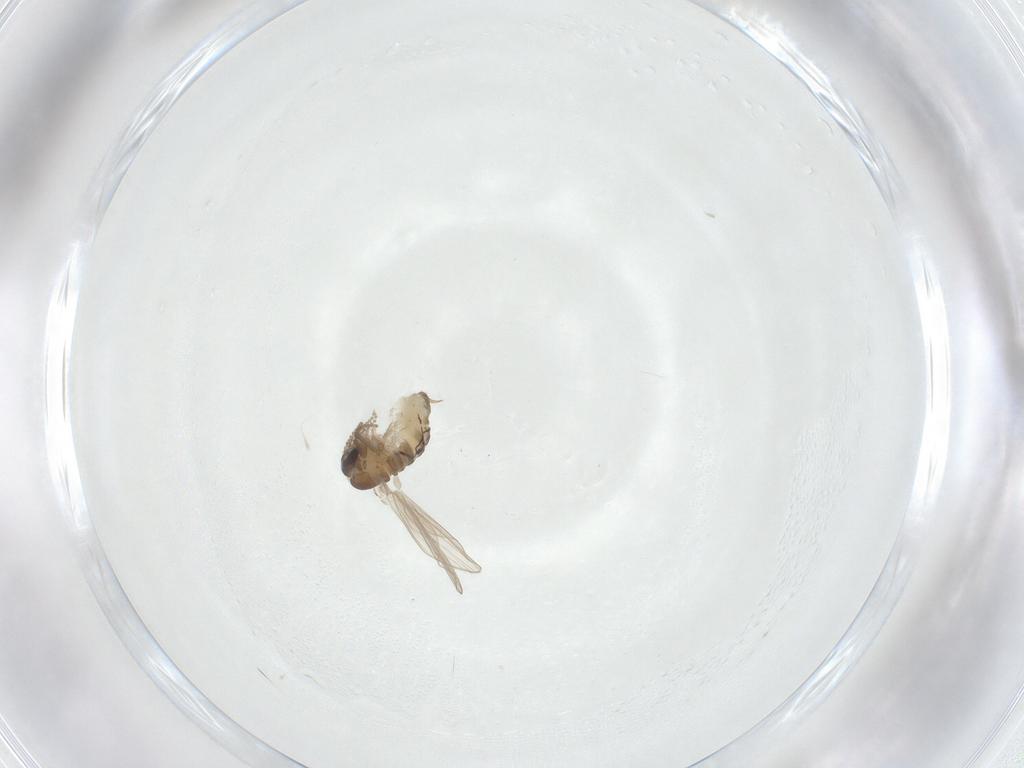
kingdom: Animalia
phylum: Arthropoda
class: Insecta
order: Diptera
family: Psychodidae
